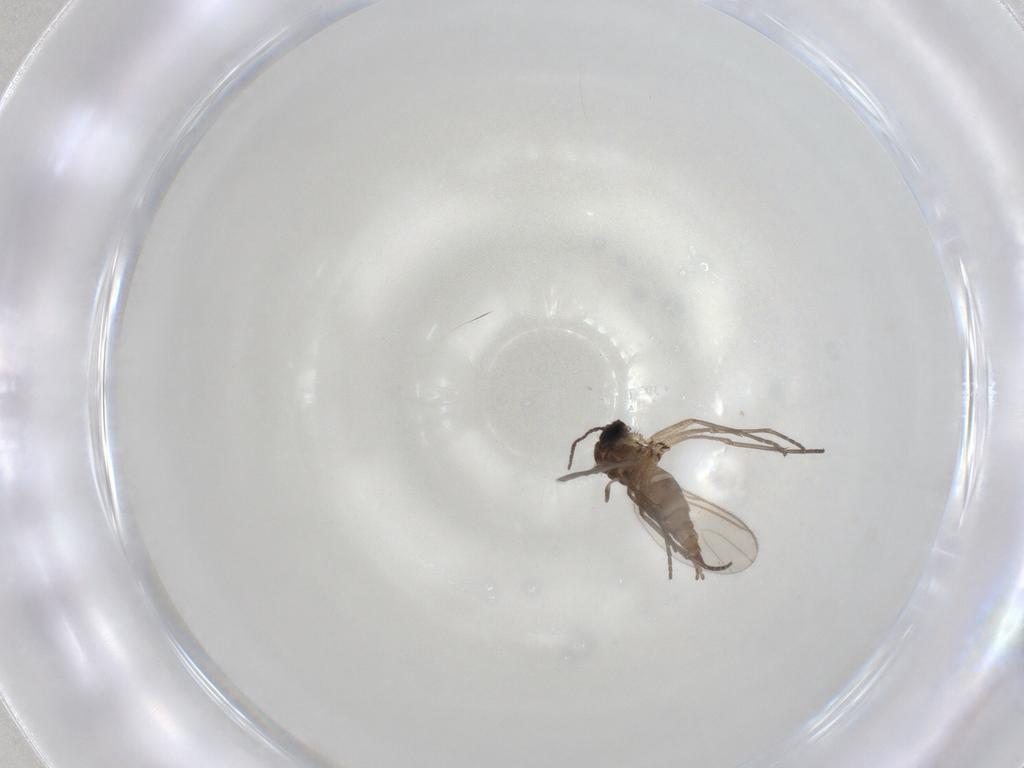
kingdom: Animalia
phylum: Arthropoda
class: Insecta
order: Diptera
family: Sciaridae
